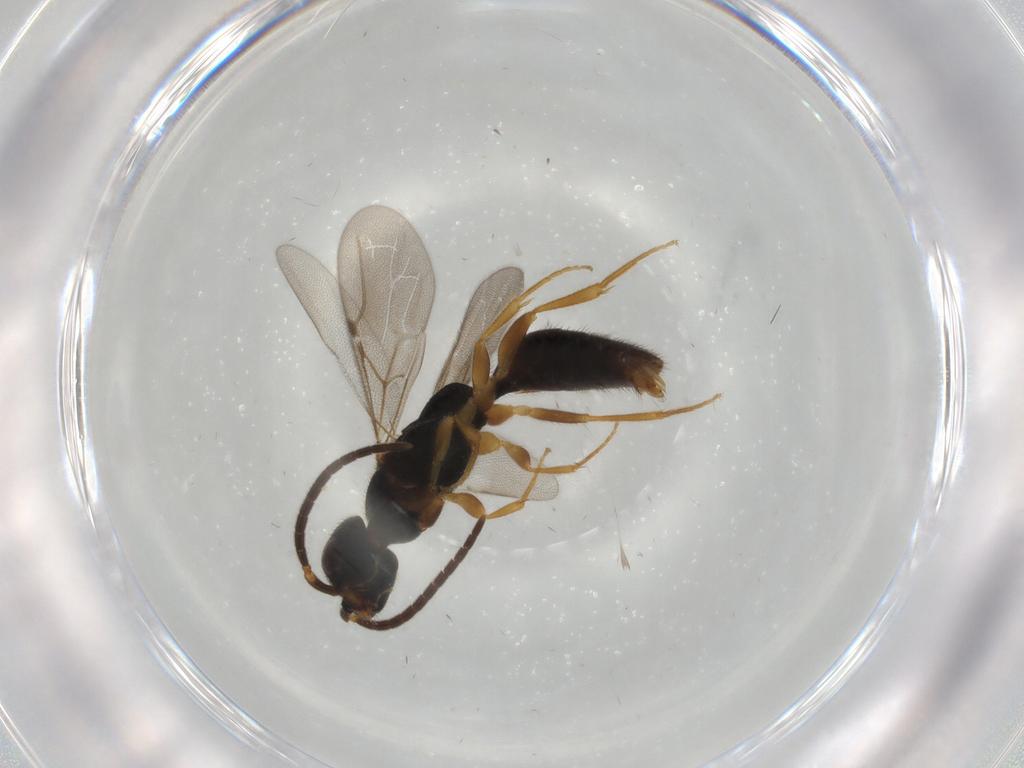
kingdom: Animalia
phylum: Arthropoda
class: Insecta
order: Hymenoptera
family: Bethylidae
